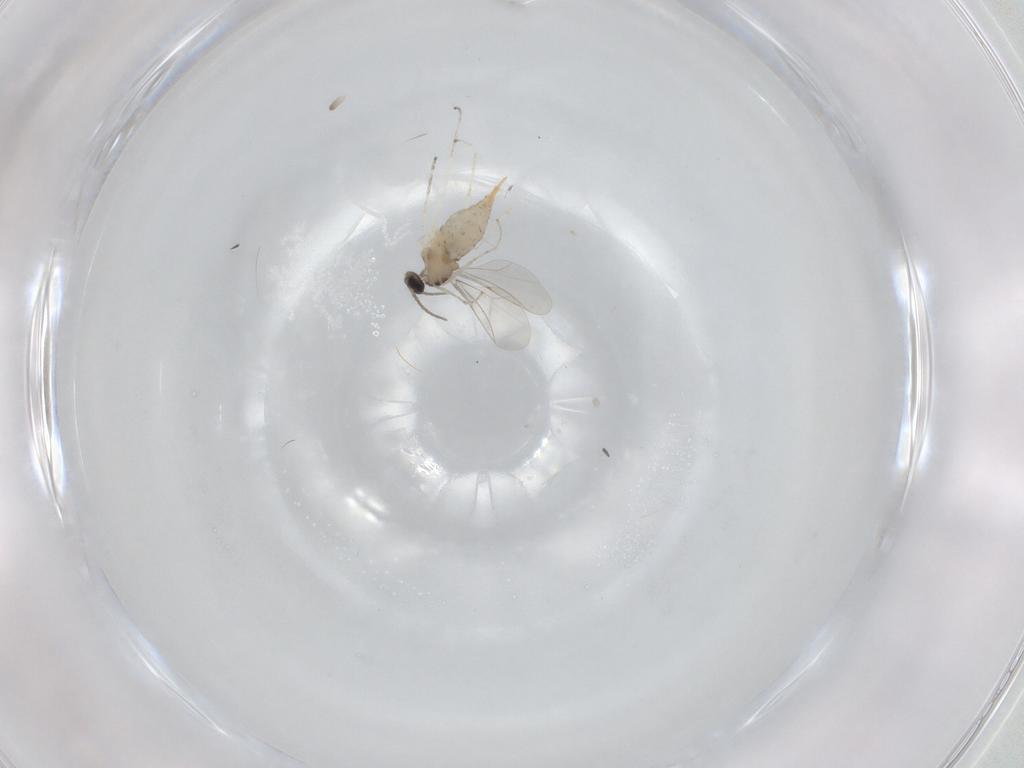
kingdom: Animalia
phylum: Arthropoda
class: Insecta
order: Diptera
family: Cecidomyiidae
